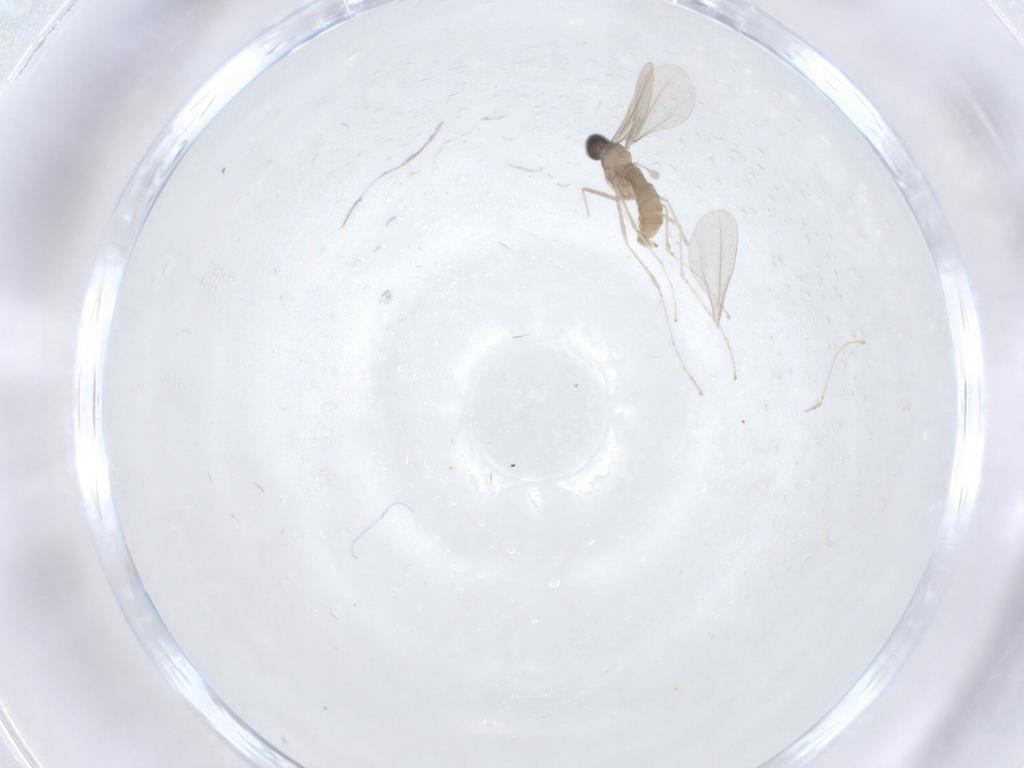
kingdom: Animalia
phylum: Arthropoda
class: Insecta
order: Diptera
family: Cecidomyiidae
